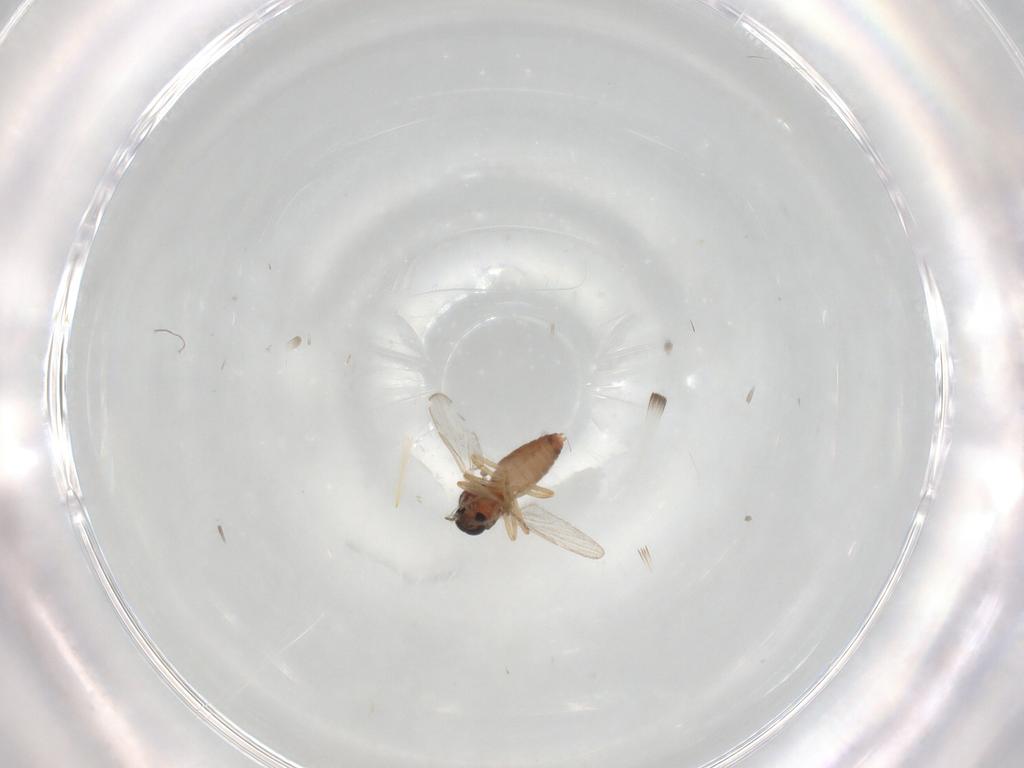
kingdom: Animalia
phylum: Arthropoda
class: Insecta
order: Diptera
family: Ceratopogonidae
